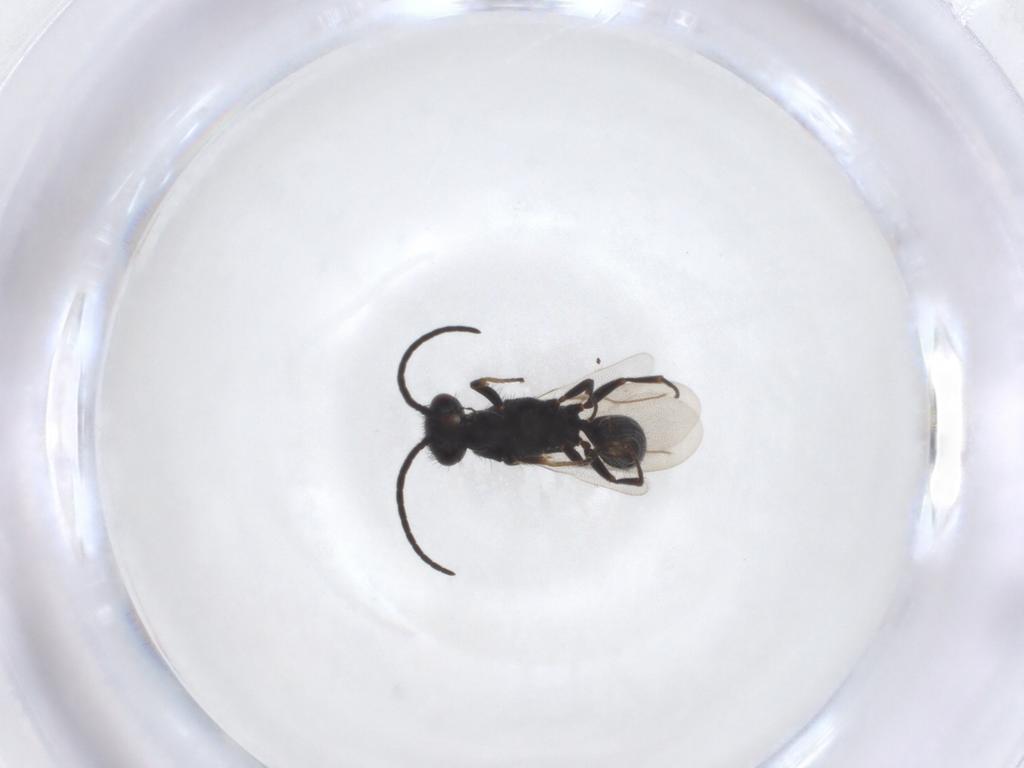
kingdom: Animalia
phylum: Arthropoda
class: Insecta
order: Hymenoptera
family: Bethylidae
